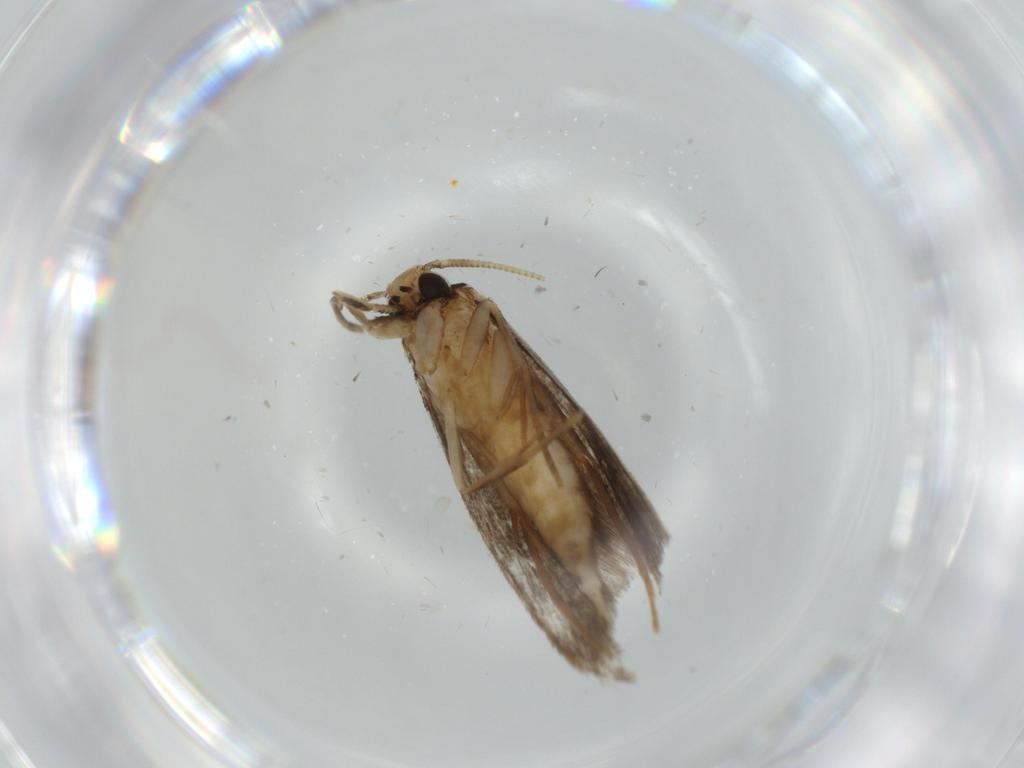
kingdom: Animalia
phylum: Arthropoda
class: Insecta
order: Lepidoptera
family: Tineidae
